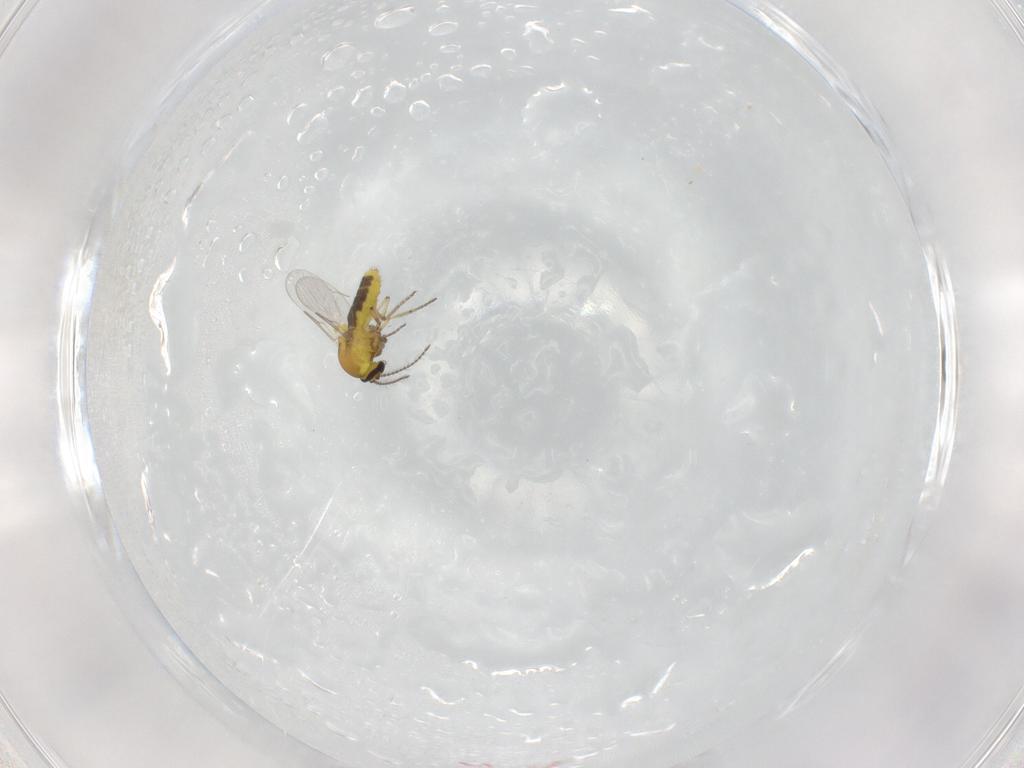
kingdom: Animalia
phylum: Arthropoda
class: Insecta
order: Diptera
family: Ceratopogonidae
